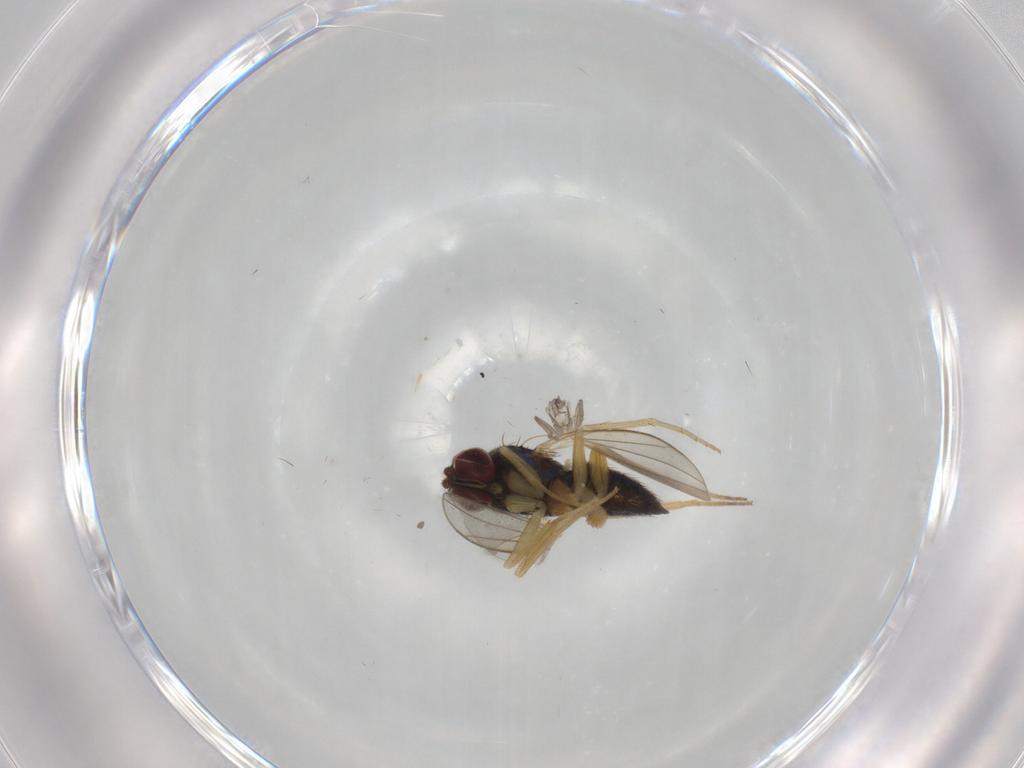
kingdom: Animalia
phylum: Arthropoda
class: Insecta
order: Diptera
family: Dolichopodidae
